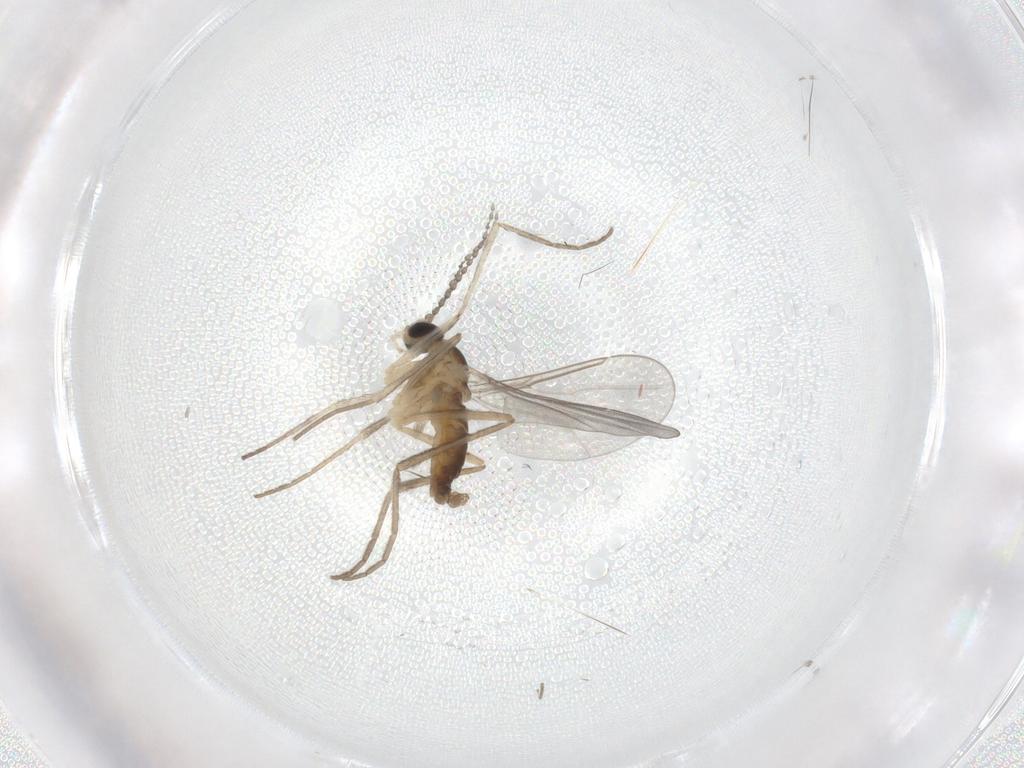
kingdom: Animalia
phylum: Arthropoda
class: Insecta
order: Diptera
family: Cecidomyiidae
